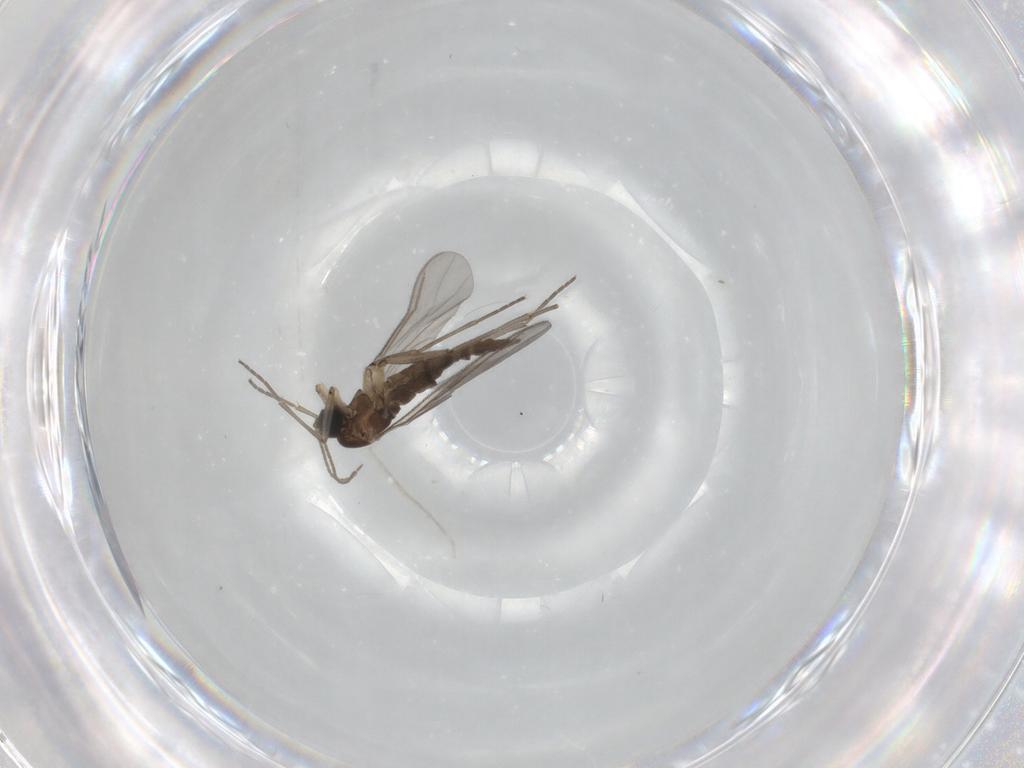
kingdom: Animalia
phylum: Arthropoda
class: Insecta
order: Diptera
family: Sciaridae
